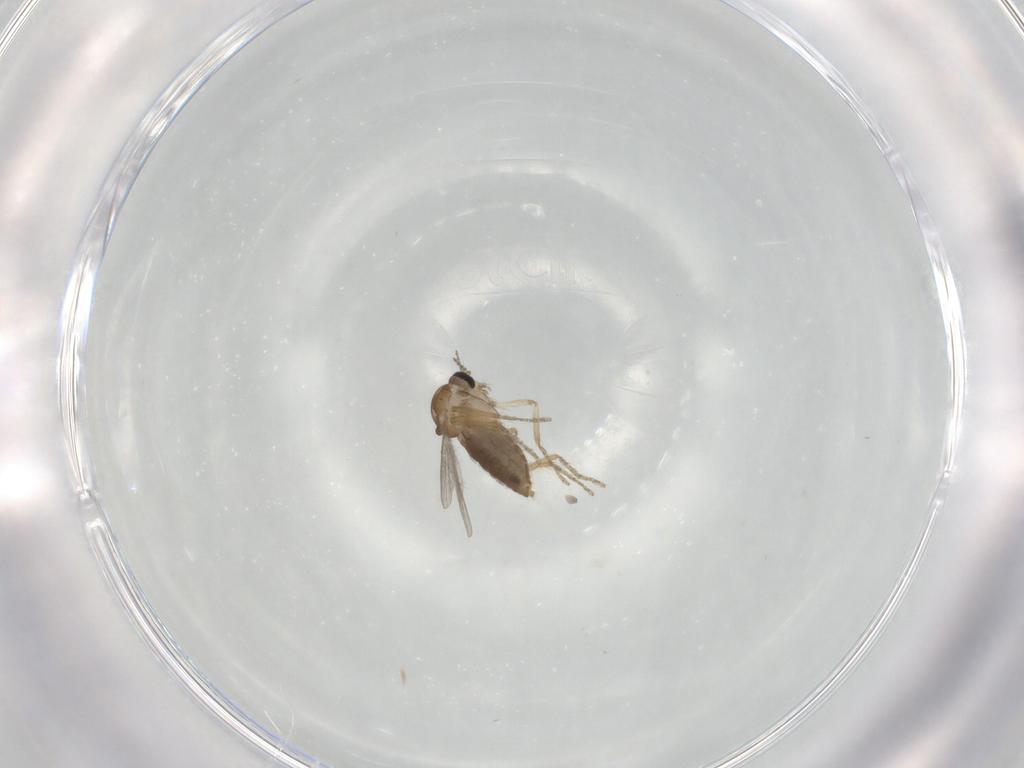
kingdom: Animalia
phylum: Arthropoda
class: Insecta
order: Diptera
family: Ceratopogonidae
